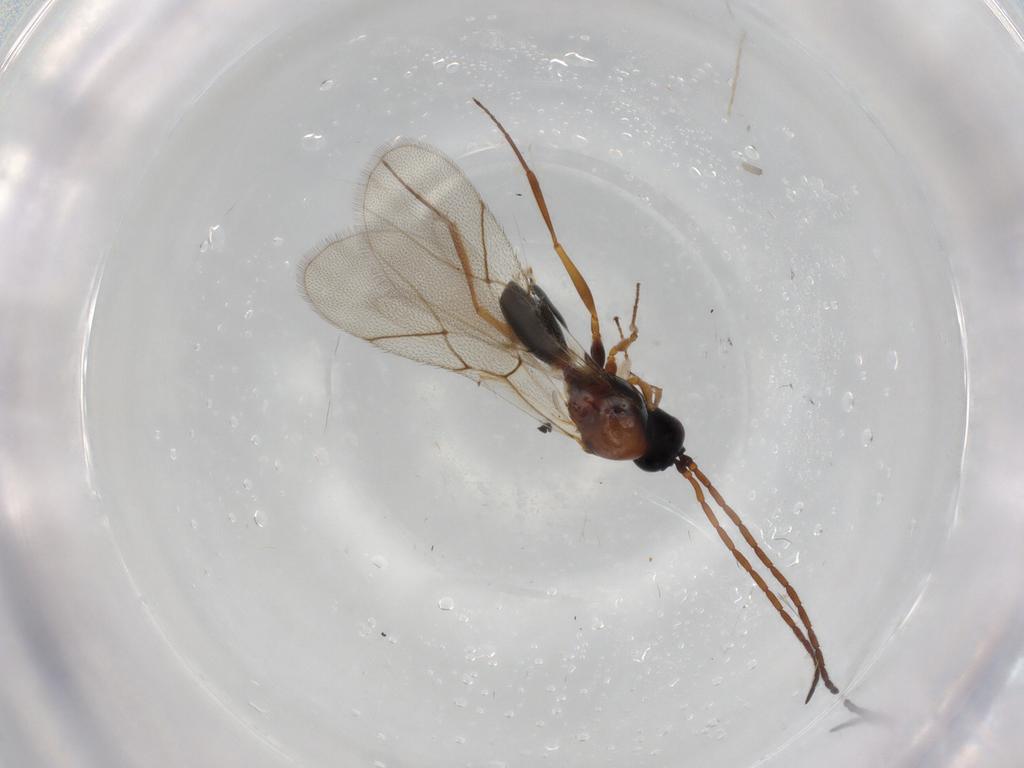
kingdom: Animalia
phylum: Arthropoda
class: Insecta
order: Hymenoptera
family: Figitidae
